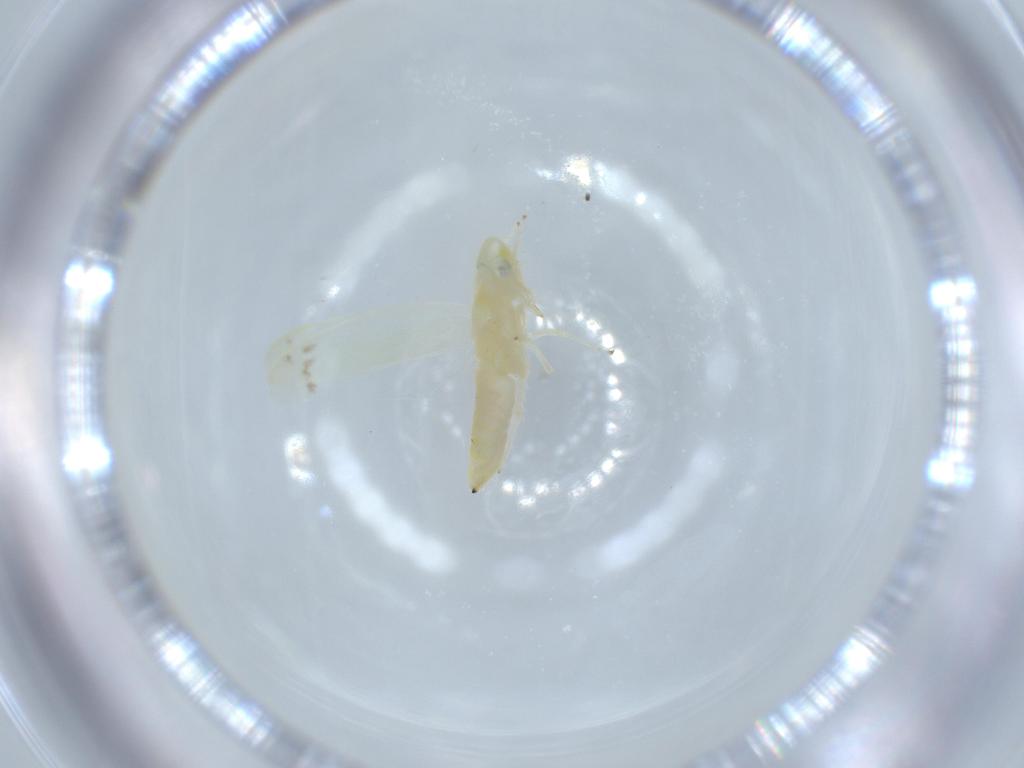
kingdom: Animalia
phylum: Arthropoda
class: Insecta
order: Hemiptera
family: Cicadellidae
